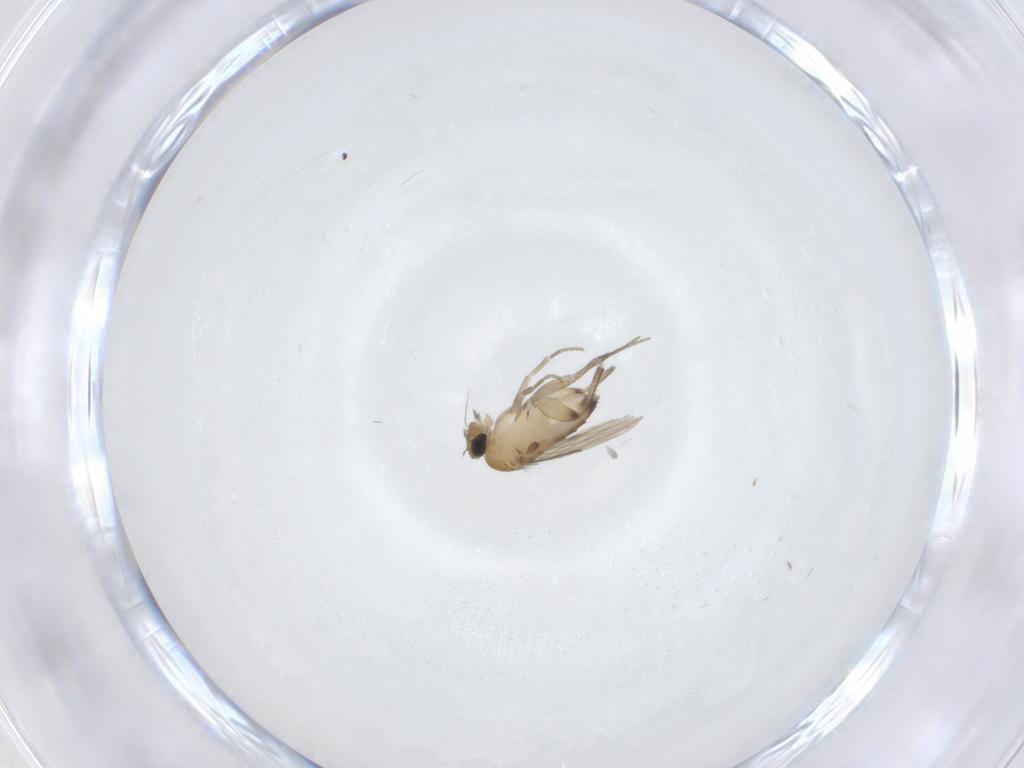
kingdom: Animalia
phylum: Arthropoda
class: Insecta
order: Diptera
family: Phoridae
